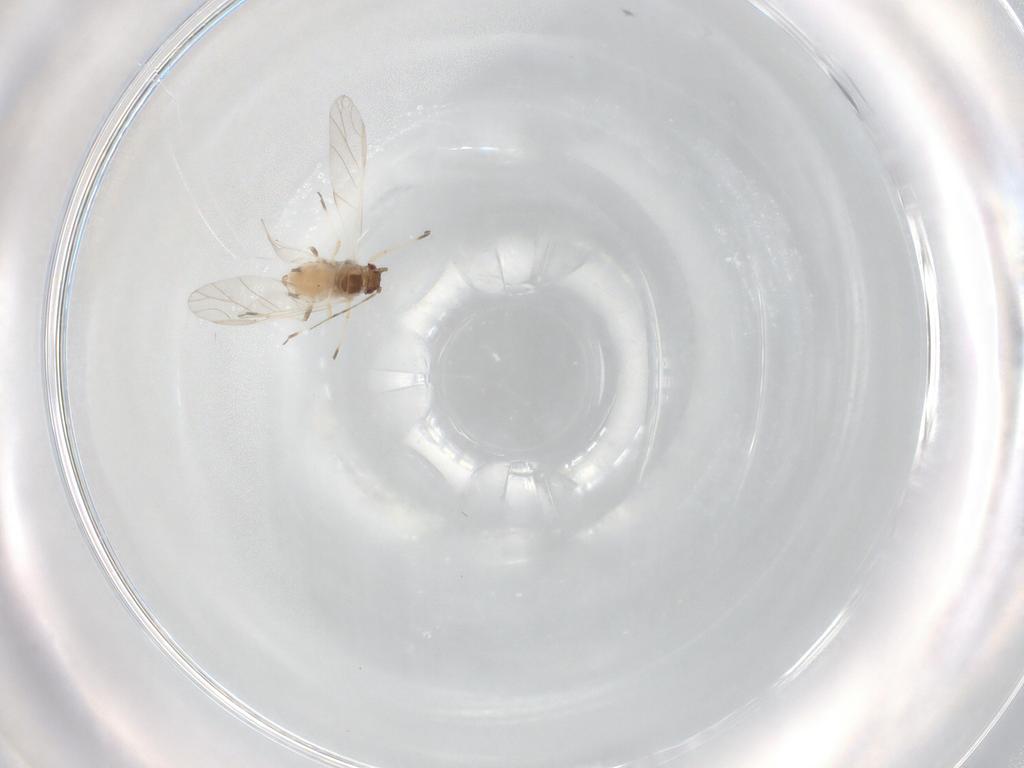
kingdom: Animalia
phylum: Arthropoda
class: Insecta
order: Hemiptera
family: Aphididae
